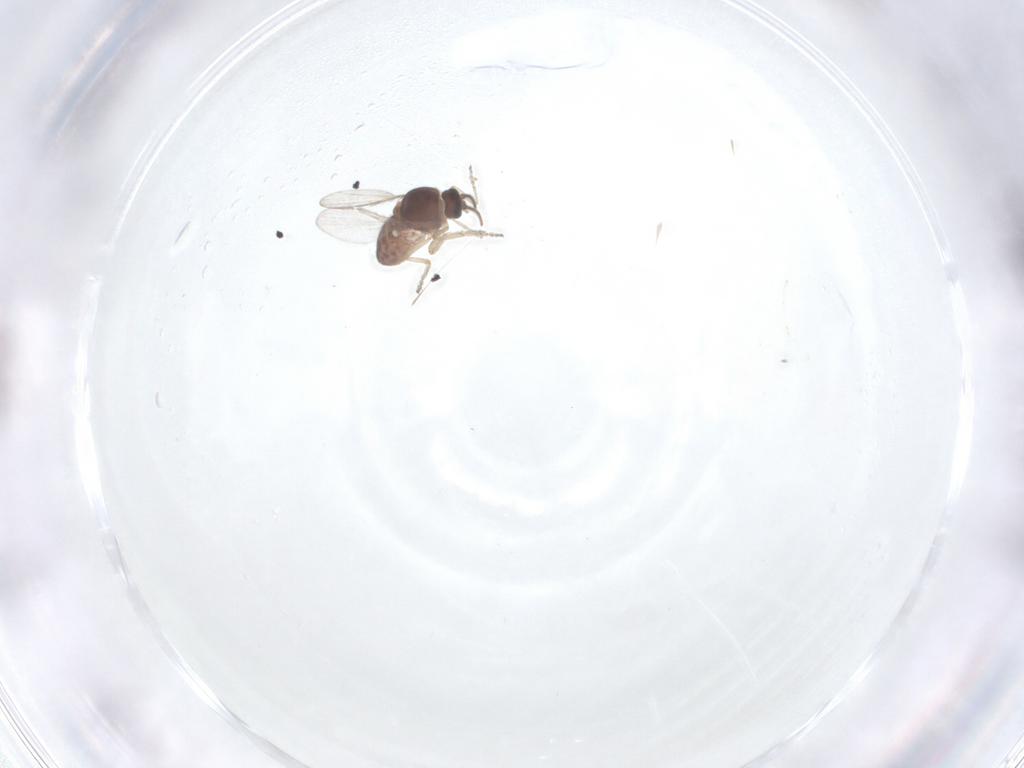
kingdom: Animalia
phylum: Arthropoda
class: Insecta
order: Diptera
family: Ceratopogonidae
